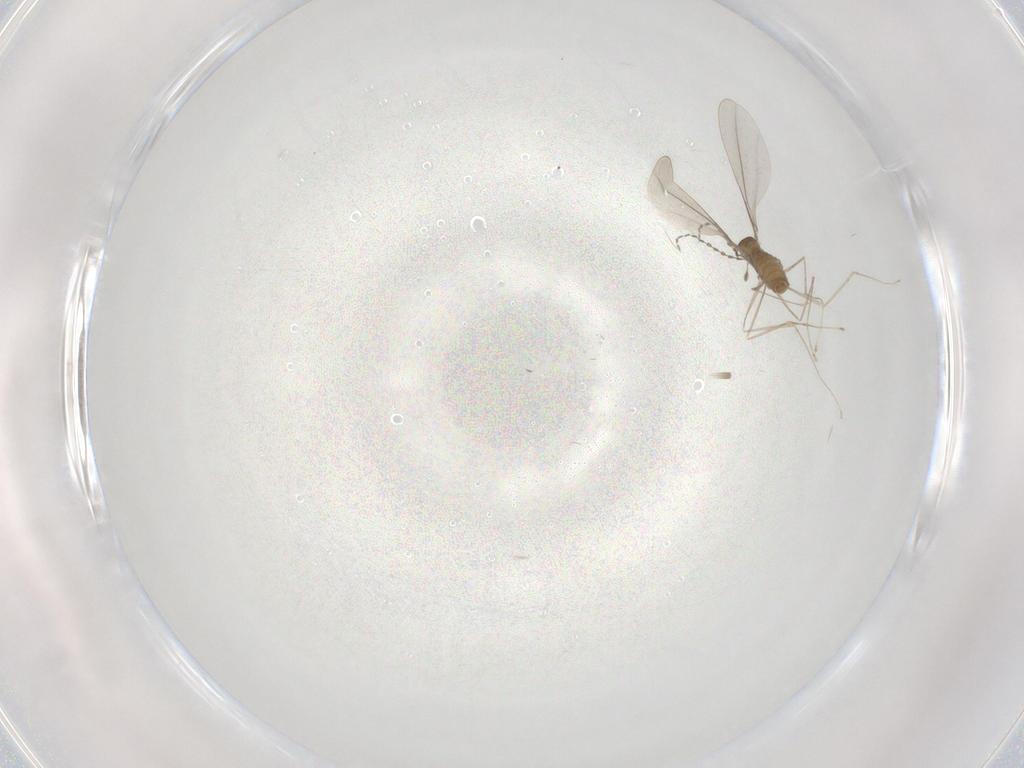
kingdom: Animalia
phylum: Arthropoda
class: Insecta
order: Diptera
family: Cecidomyiidae
